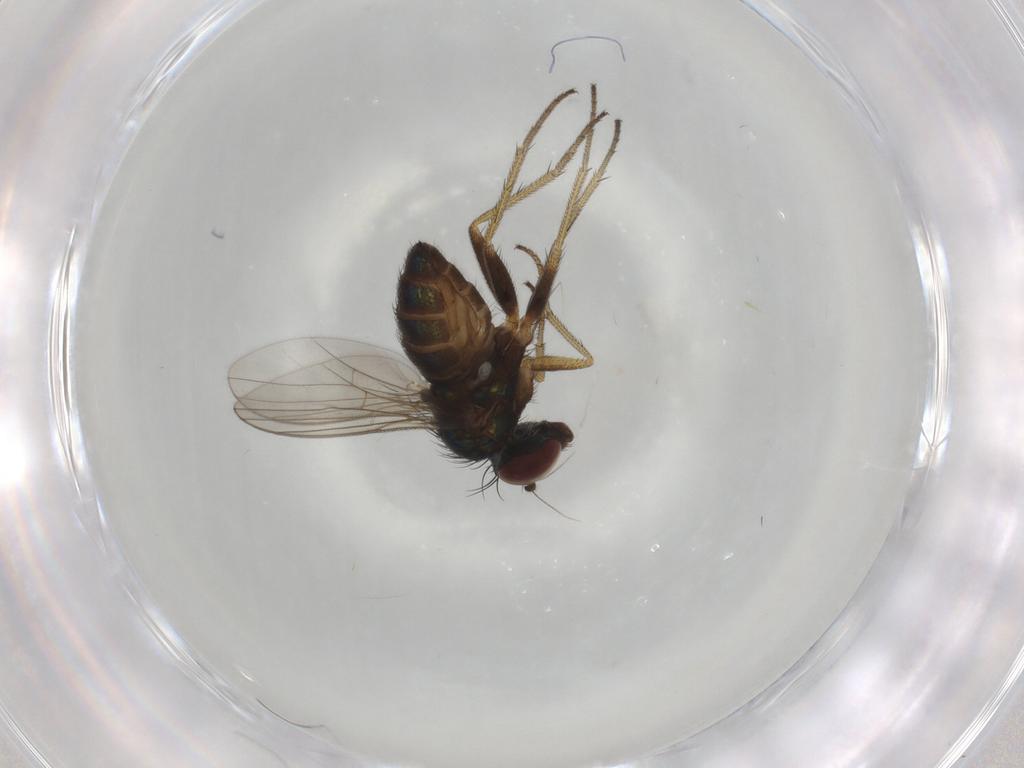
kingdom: Animalia
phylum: Arthropoda
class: Insecta
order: Diptera
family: Dolichopodidae
